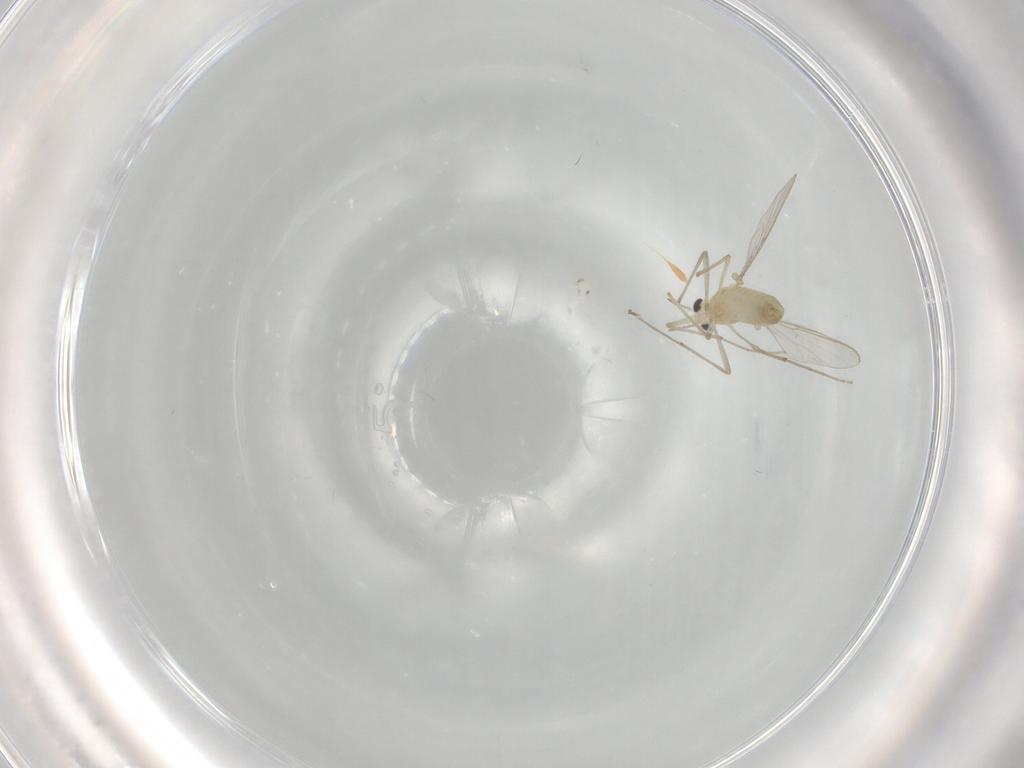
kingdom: Animalia
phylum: Arthropoda
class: Insecta
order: Diptera
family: Chironomidae
